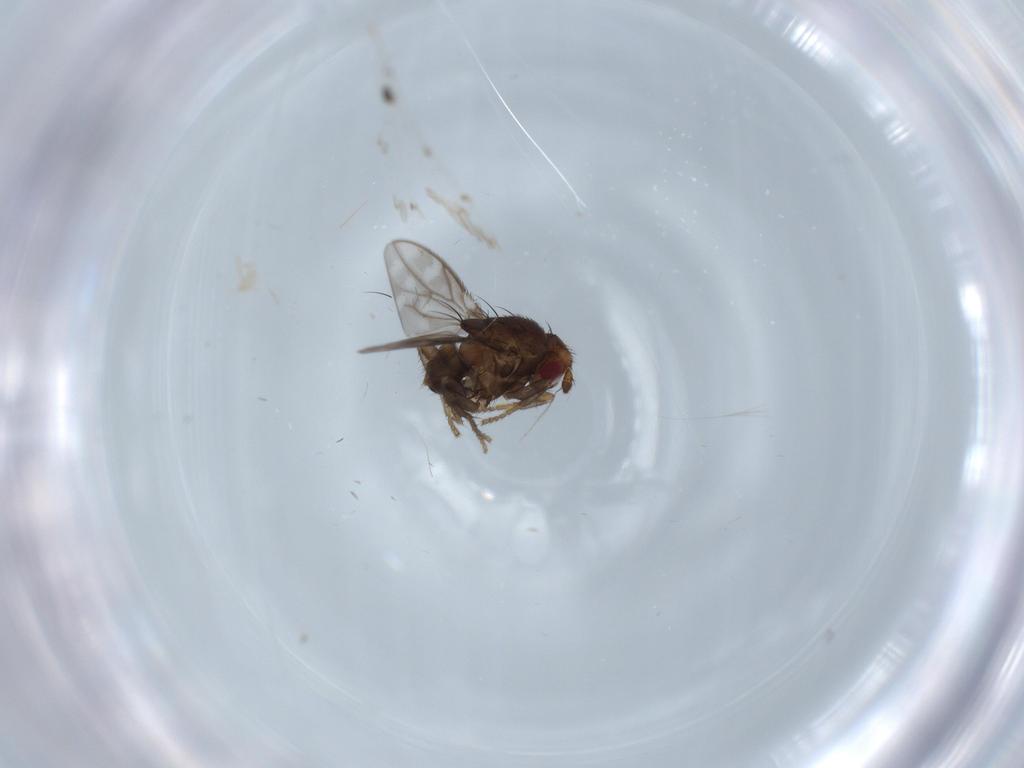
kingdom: Animalia
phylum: Arthropoda
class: Insecta
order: Diptera
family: Sphaeroceridae
